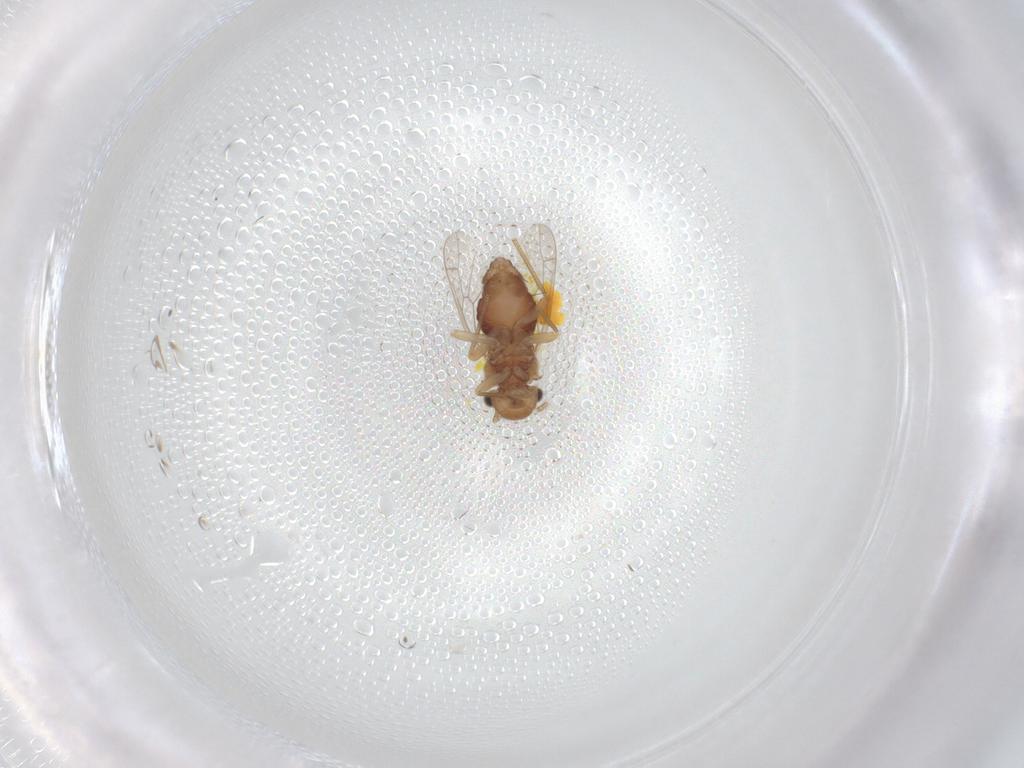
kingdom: Animalia
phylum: Arthropoda
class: Insecta
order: Psocodea
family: Ectopsocidae
